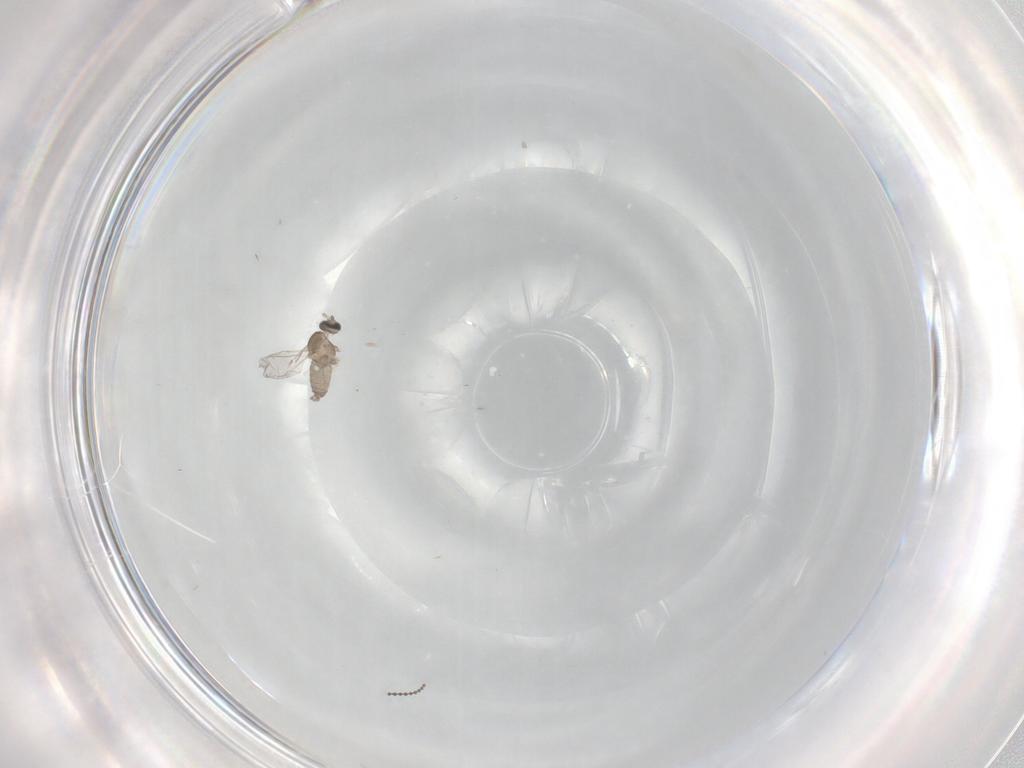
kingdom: Animalia
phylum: Arthropoda
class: Insecta
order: Diptera
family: Cecidomyiidae
